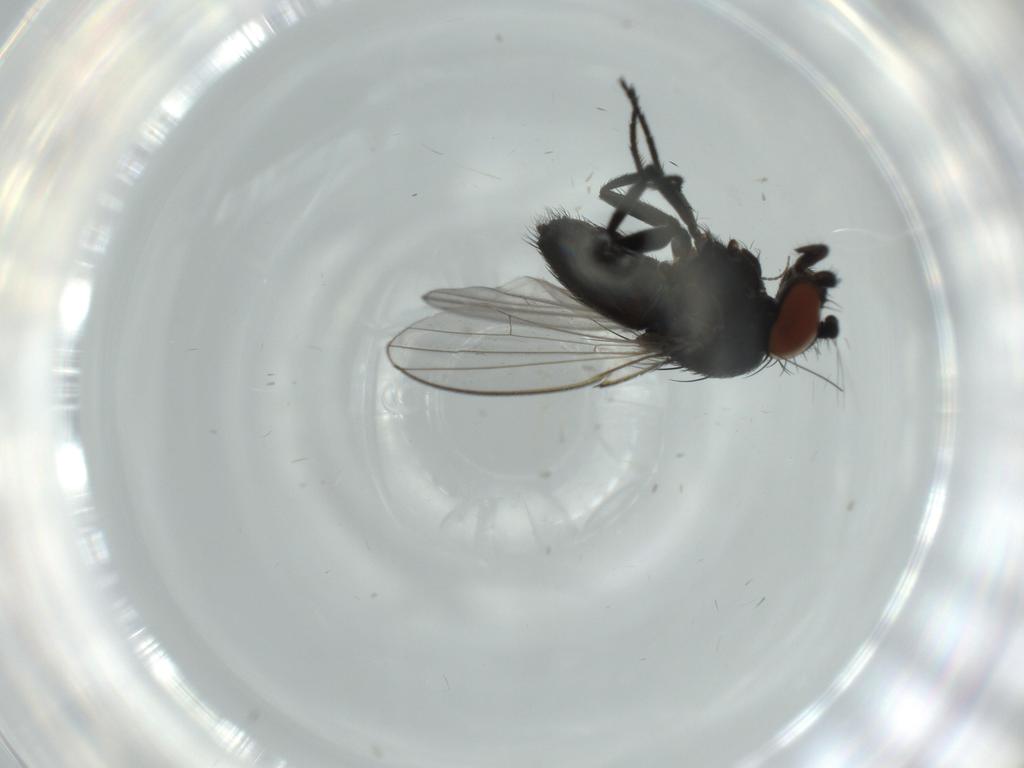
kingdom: Animalia
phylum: Arthropoda
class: Insecta
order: Diptera
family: Milichiidae
